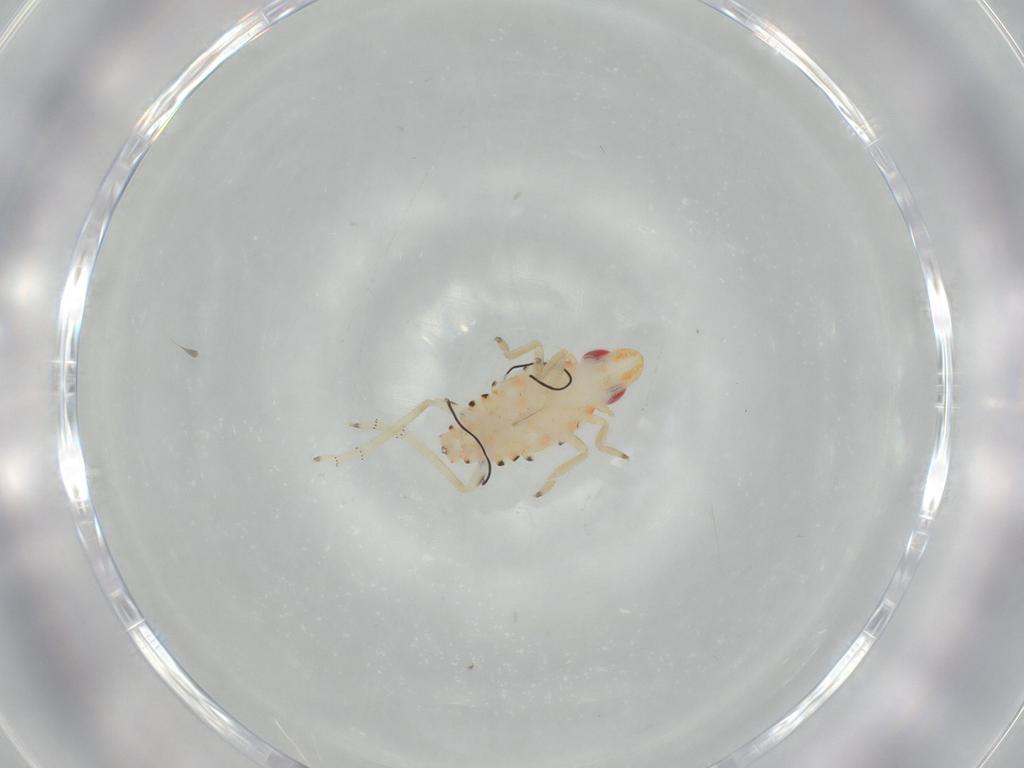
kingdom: Animalia
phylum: Arthropoda
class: Insecta
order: Hemiptera
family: Tropiduchidae
